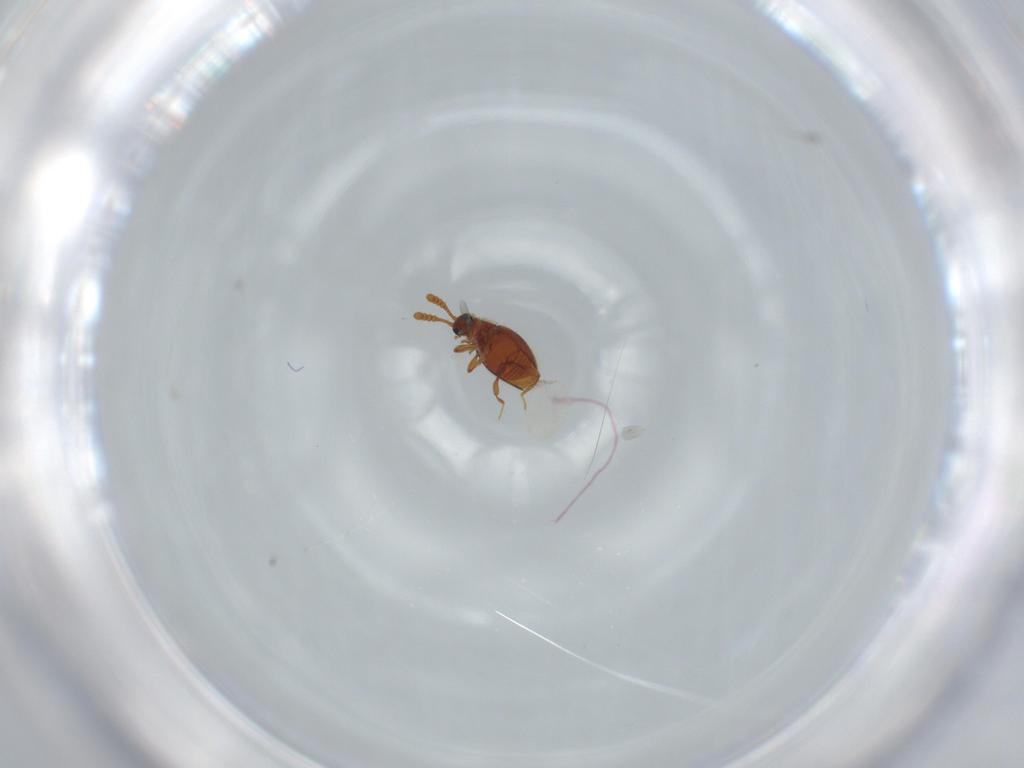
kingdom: Animalia
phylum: Arthropoda
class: Insecta
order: Coleoptera
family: Staphylinidae
